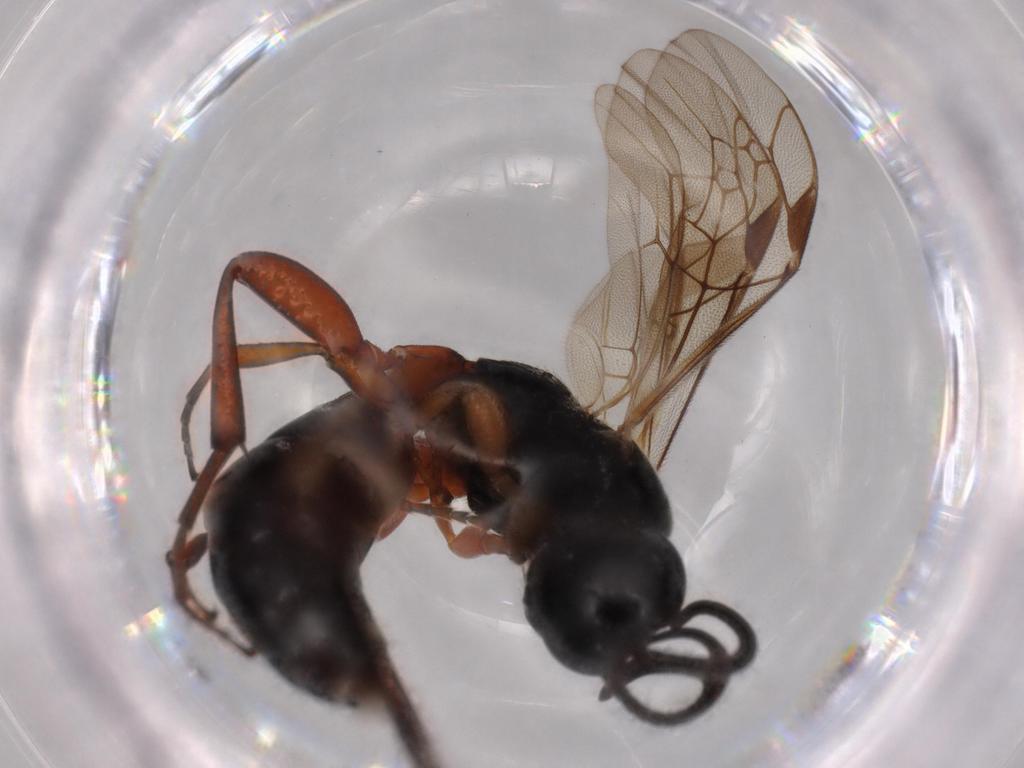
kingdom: Animalia
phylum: Arthropoda
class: Insecta
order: Hymenoptera
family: Ichneumonidae
